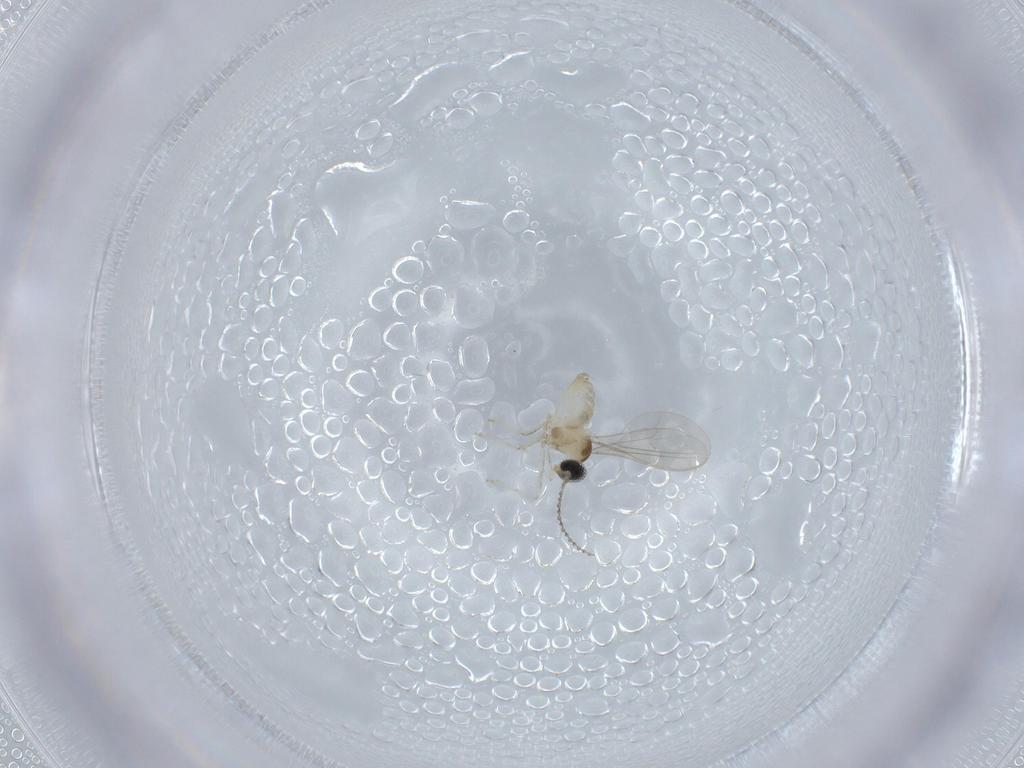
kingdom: Animalia
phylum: Arthropoda
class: Insecta
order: Diptera
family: Cecidomyiidae
